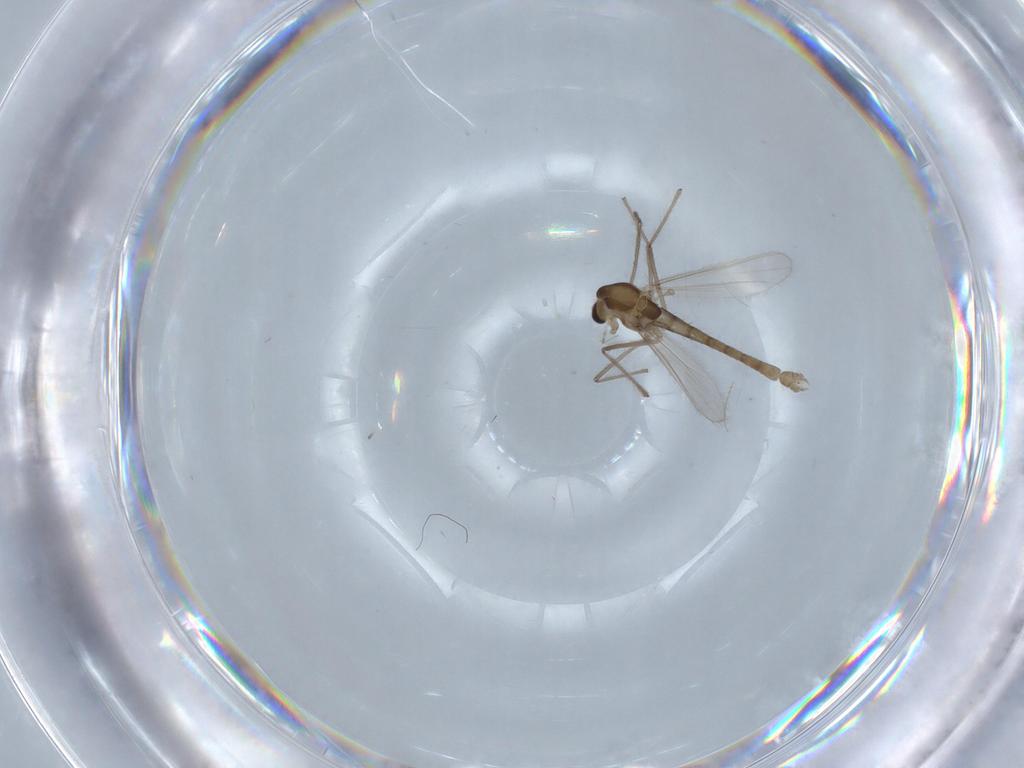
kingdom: Animalia
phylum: Arthropoda
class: Insecta
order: Diptera
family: Chironomidae
